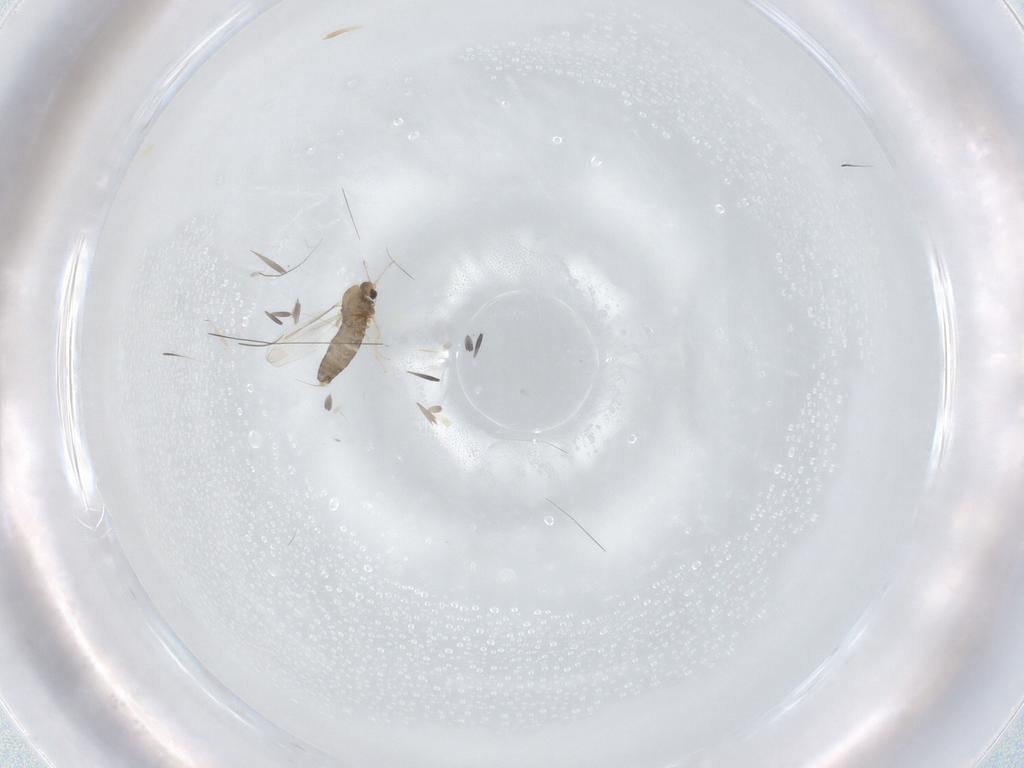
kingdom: Animalia
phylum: Arthropoda
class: Insecta
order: Diptera
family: Chironomidae
